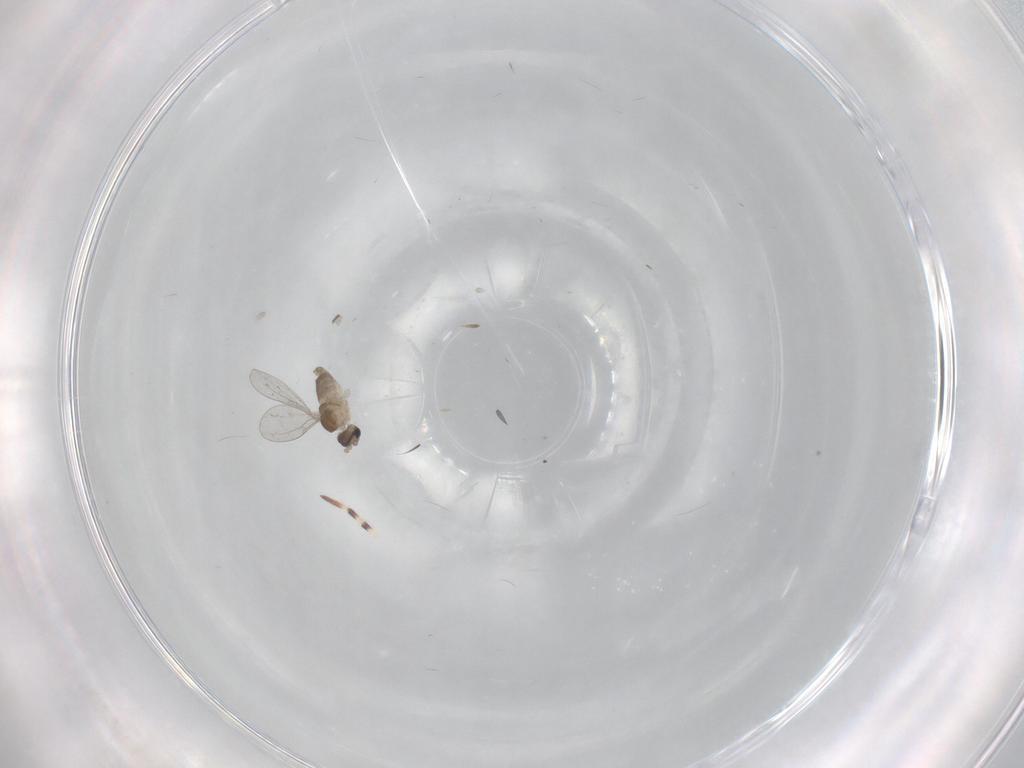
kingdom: Animalia
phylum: Arthropoda
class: Insecta
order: Diptera
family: Cecidomyiidae
